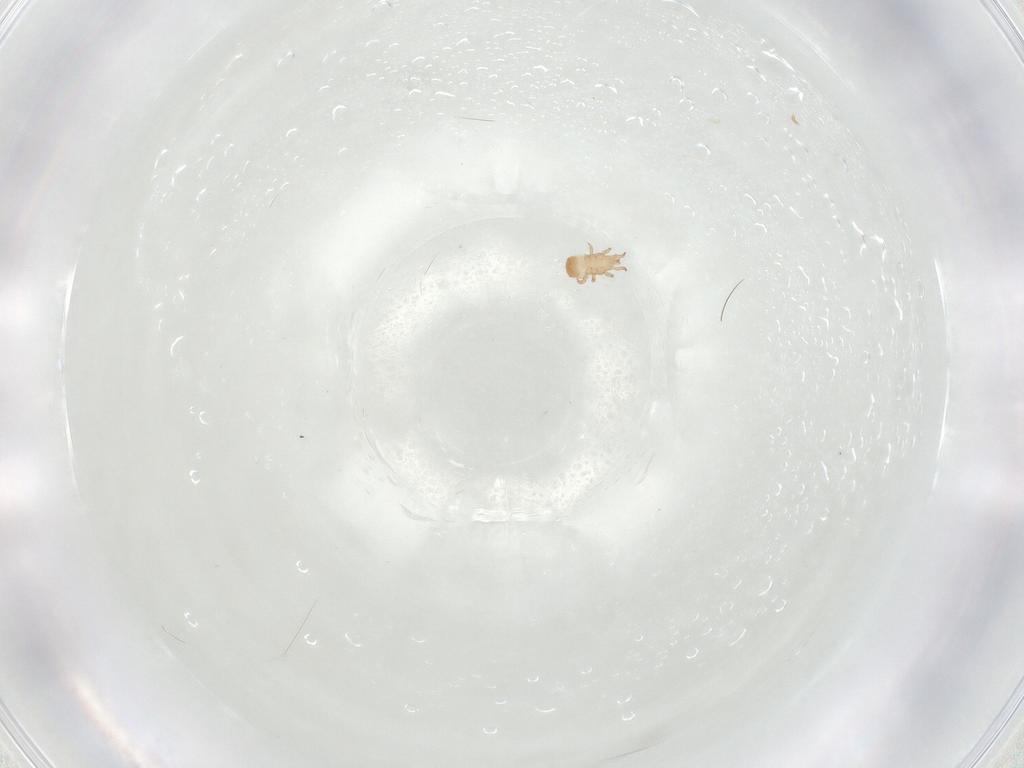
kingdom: Animalia
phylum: Arthropoda
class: Arachnida
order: Mesostigmata
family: Ascidae
